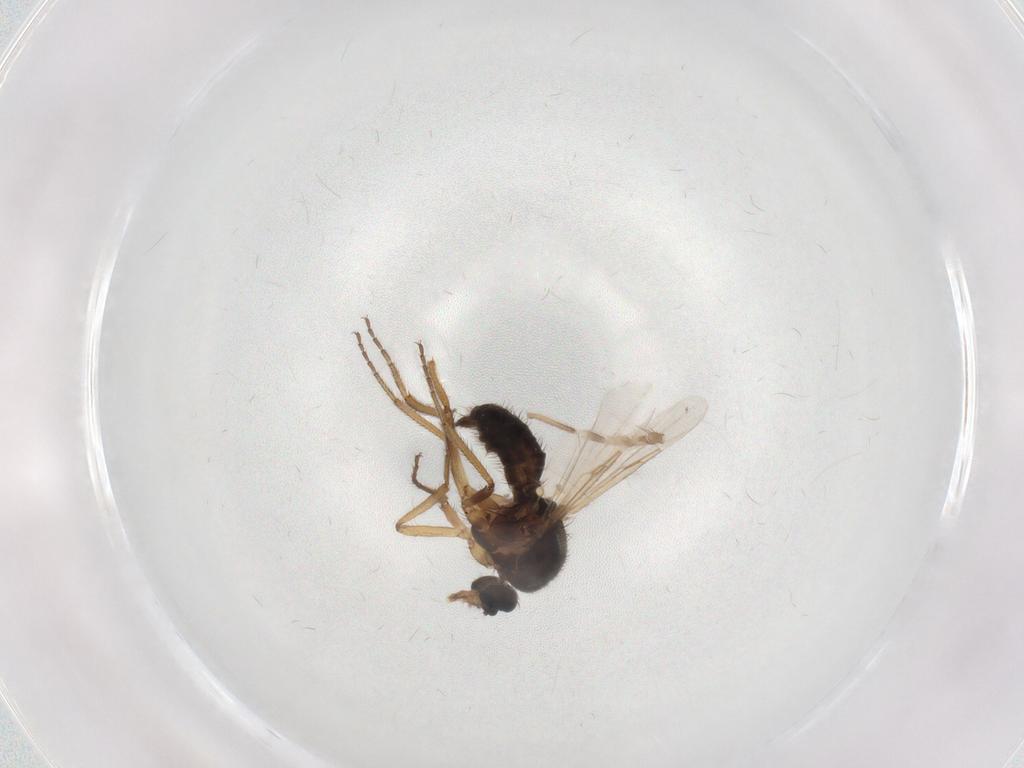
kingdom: Animalia
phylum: Arthropoda
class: Insecta
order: Diptera
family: Ceratopogonidae
